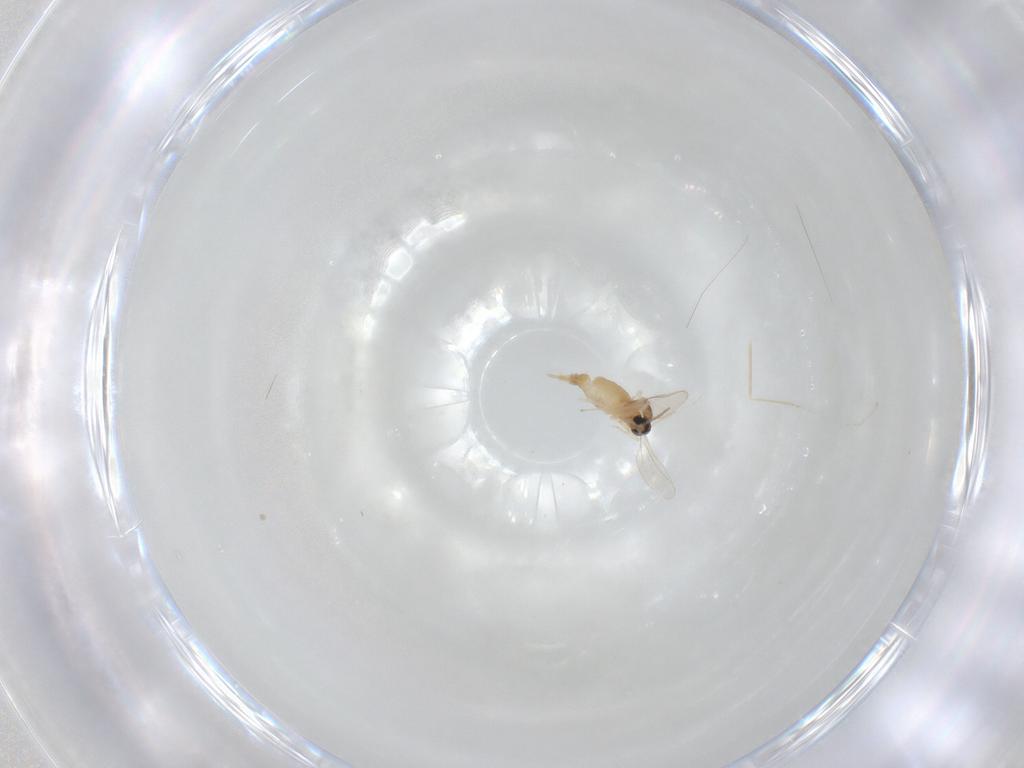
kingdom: Animalia
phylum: Arthropoda
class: Insecta
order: Diptera
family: Cecidomyiidae
